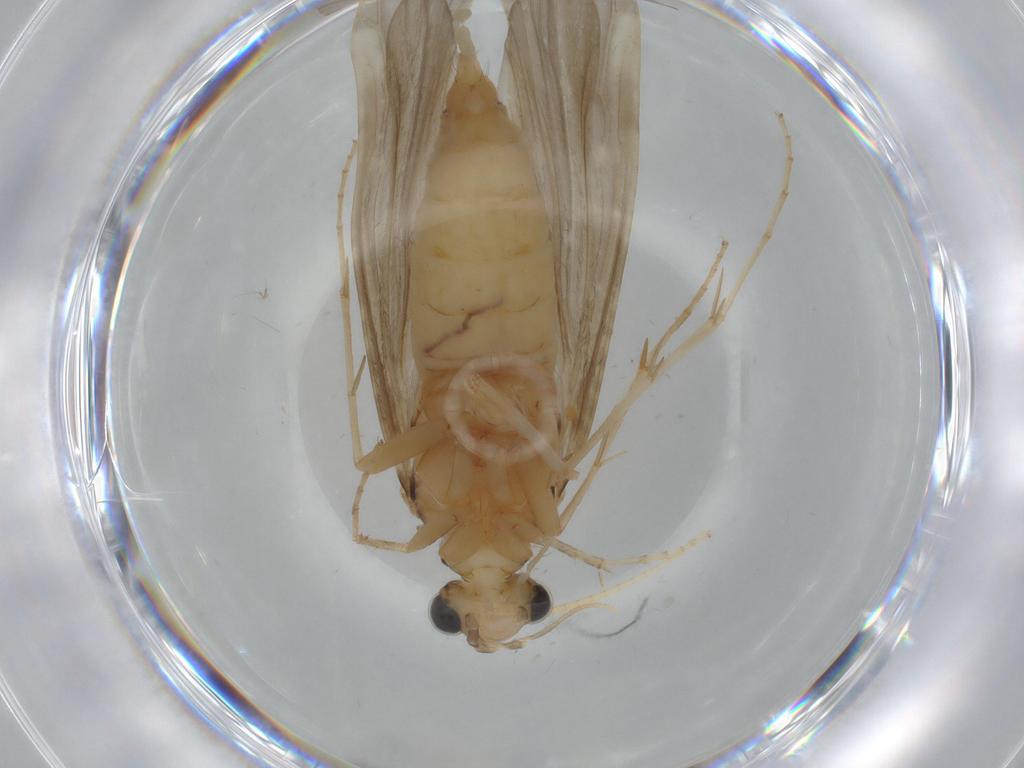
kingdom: Animalia
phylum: Arthropoda
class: Insecta
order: Trichoptera
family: Ecnomidae
